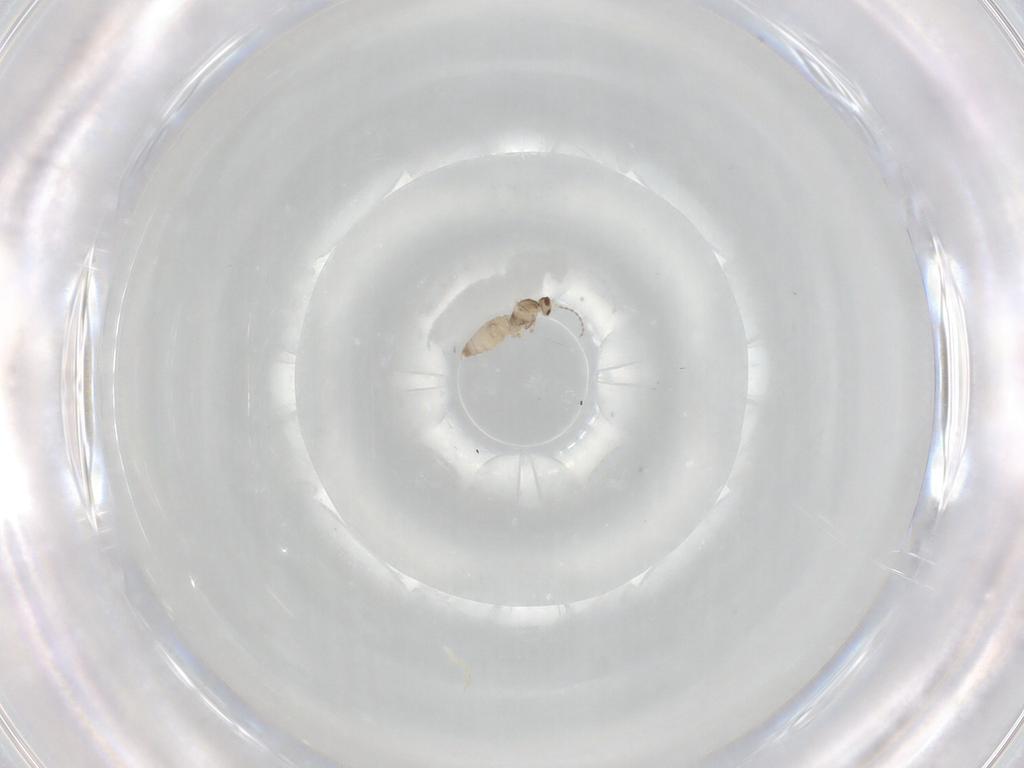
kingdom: Animalia
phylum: Arthropoda
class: Insecta
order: Diptera
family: Cecidomyiidae
